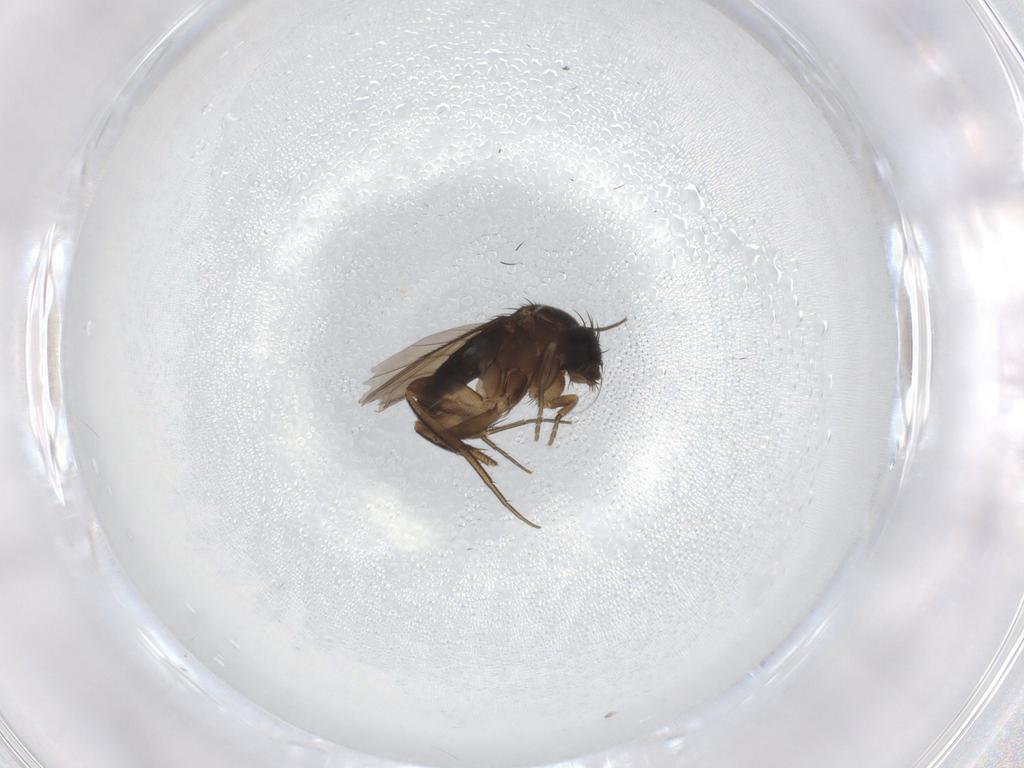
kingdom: Animalia
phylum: Arthropoda
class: Insecta
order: Diptera
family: Phoridae
